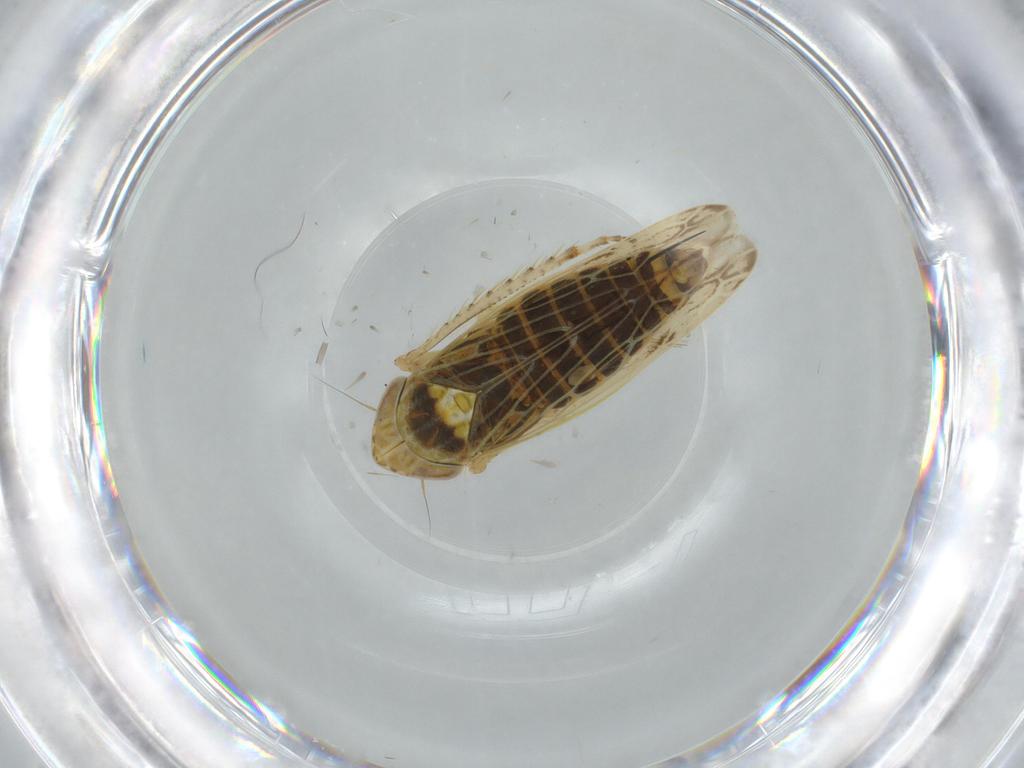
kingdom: Animalia
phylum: Arthropoda
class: Insecta
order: Hemiptera
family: Cicadellidae
